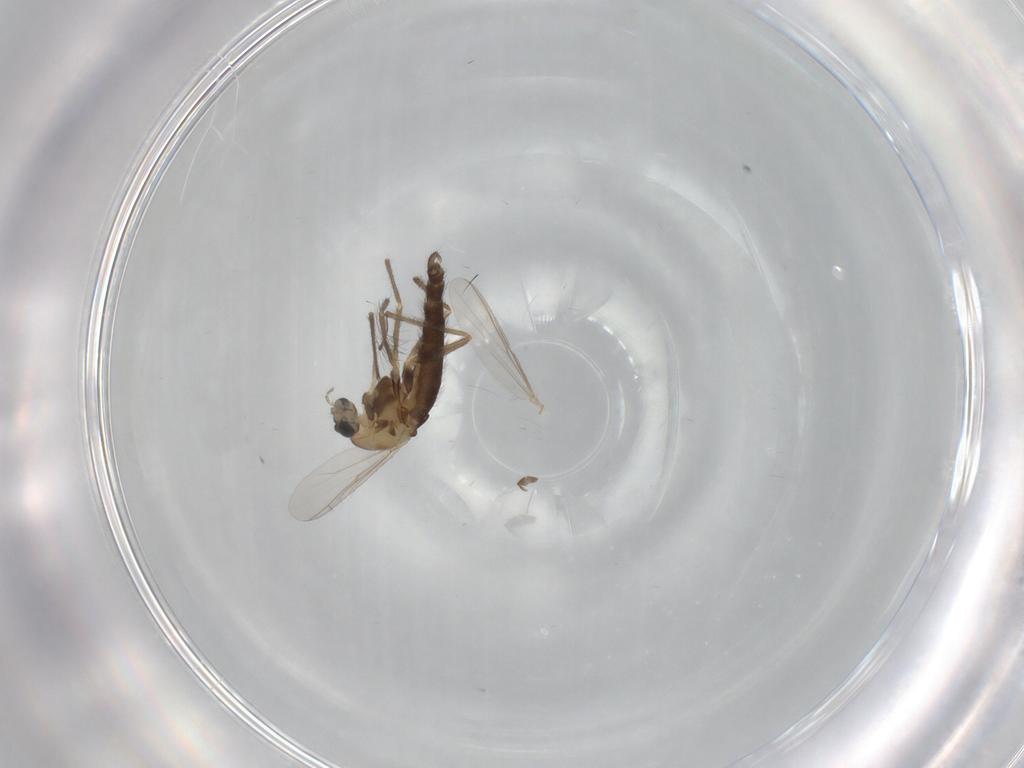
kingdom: Animalia
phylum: Arthropoda
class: Insecta
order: Diptera
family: Chironomidae
